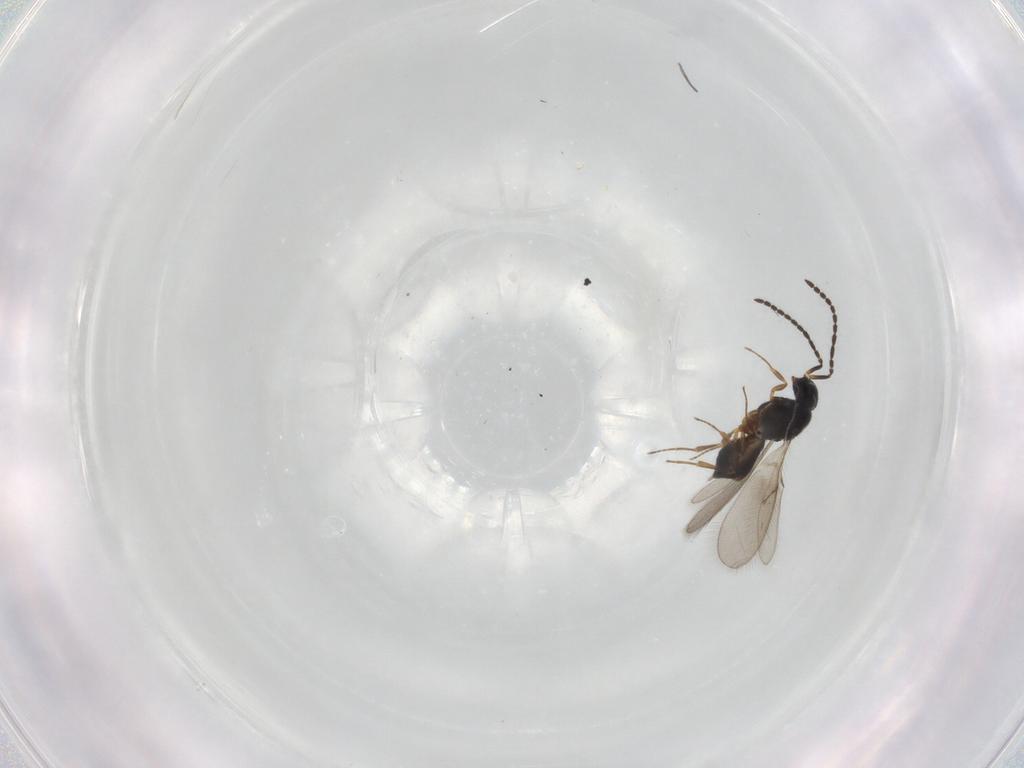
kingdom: Animalia
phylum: Arthropoda
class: Insecta
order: Hymenoptera
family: Scelionidae
